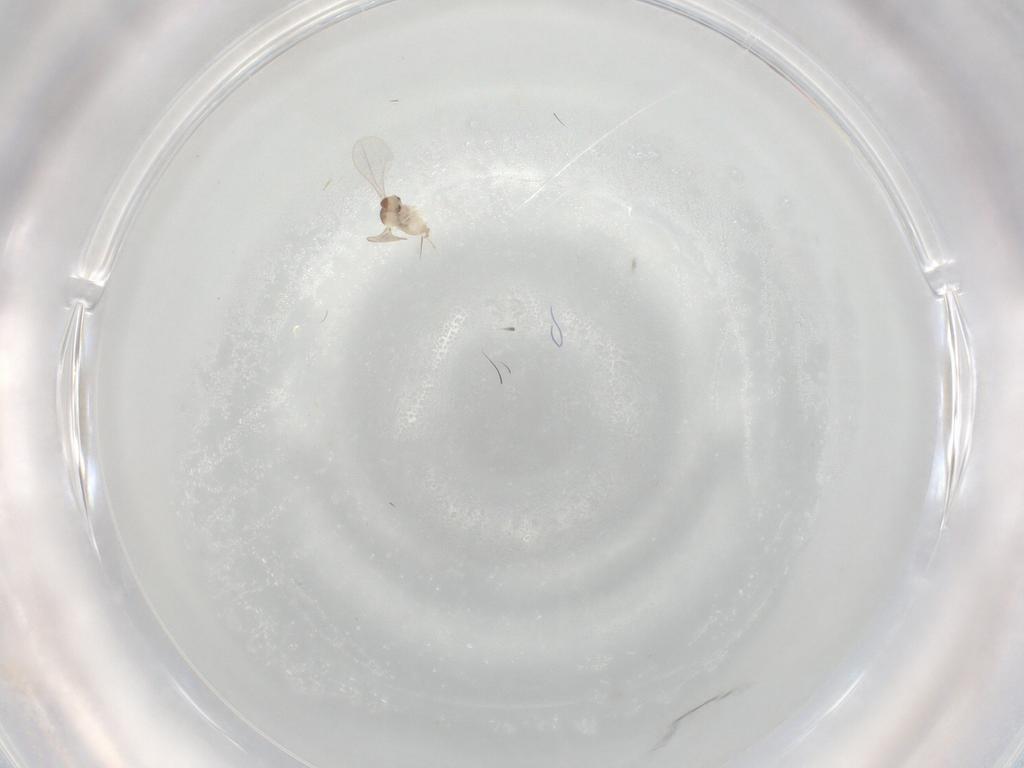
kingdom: Animalia
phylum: Arthropoda
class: Insecta
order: Diptera
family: Cecidomyiidae
